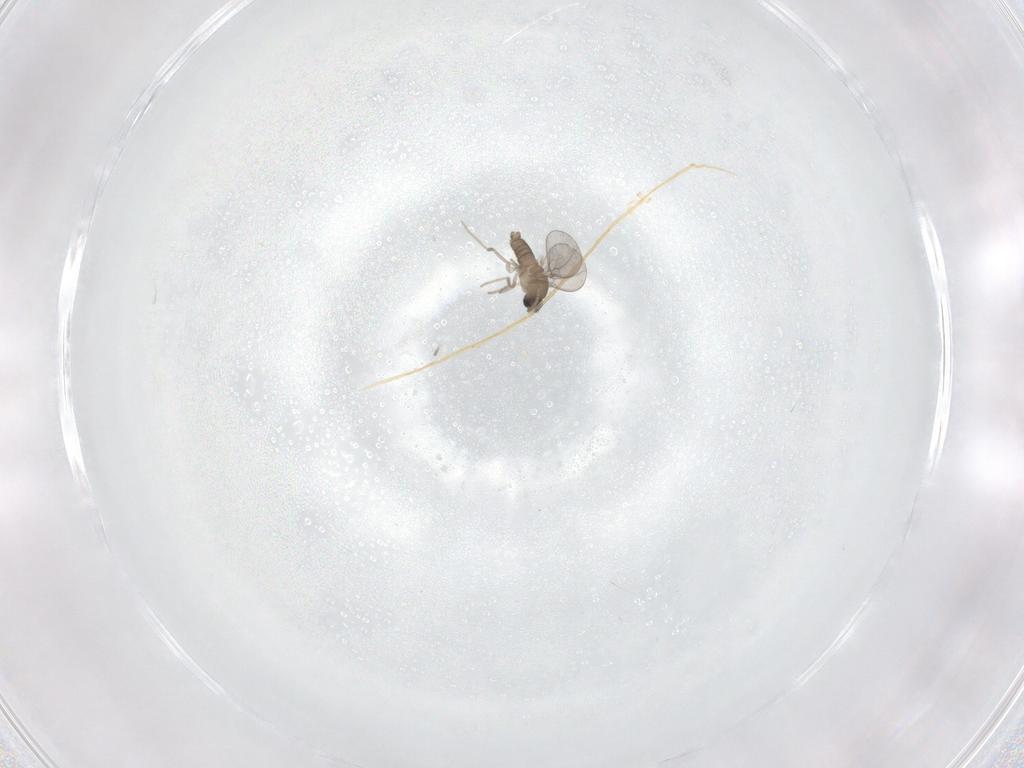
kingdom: Animalia
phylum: Arthropoda
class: Insecta
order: Diptera
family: Cecidomyiidae
